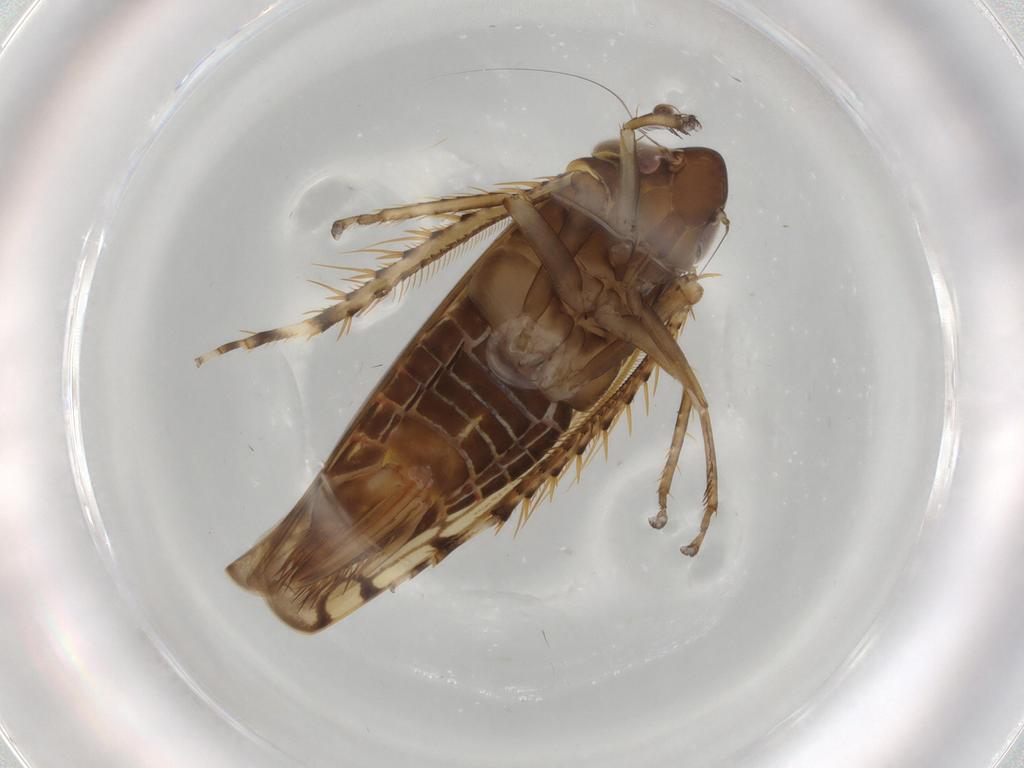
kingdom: Animalia
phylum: Arthropoda
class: Insecta
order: Hemiptera
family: Cicadellidae
